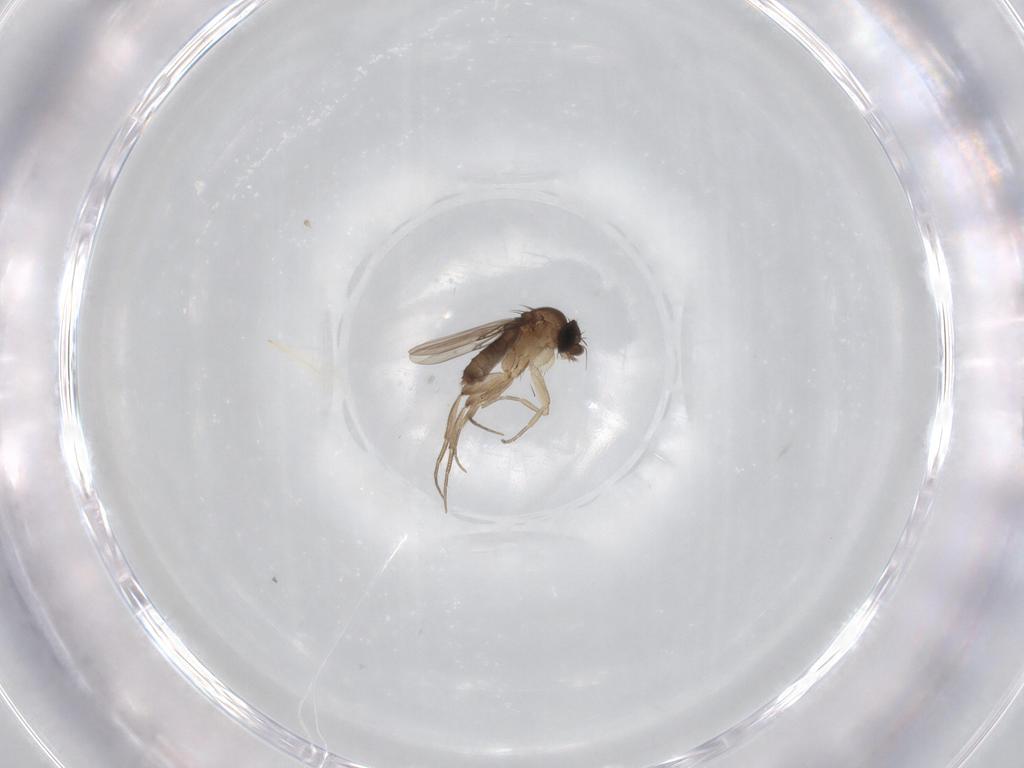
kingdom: Animalia
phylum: Arthropoda
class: Insecta
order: Diptera
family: Phoridae
